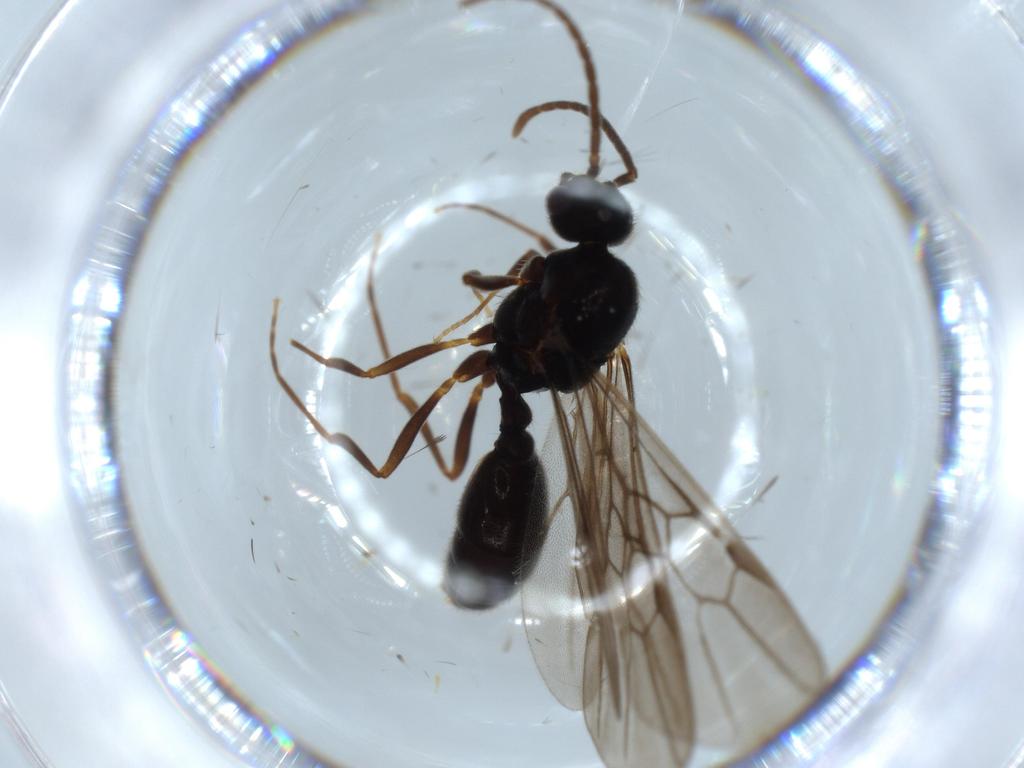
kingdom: Animalia
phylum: Arthropoda
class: Insecta
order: Hymenoptera
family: Formicidae
